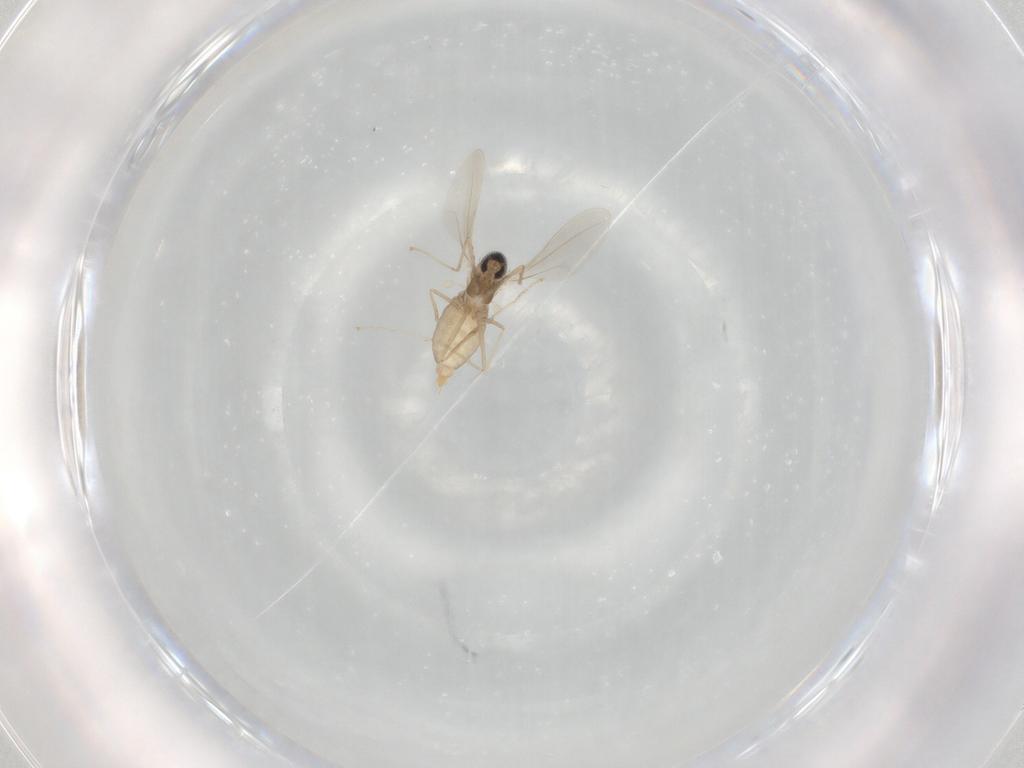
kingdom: Animalia
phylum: Arthropoda
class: Insecta
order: Diptera
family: Cecidomyiidae
